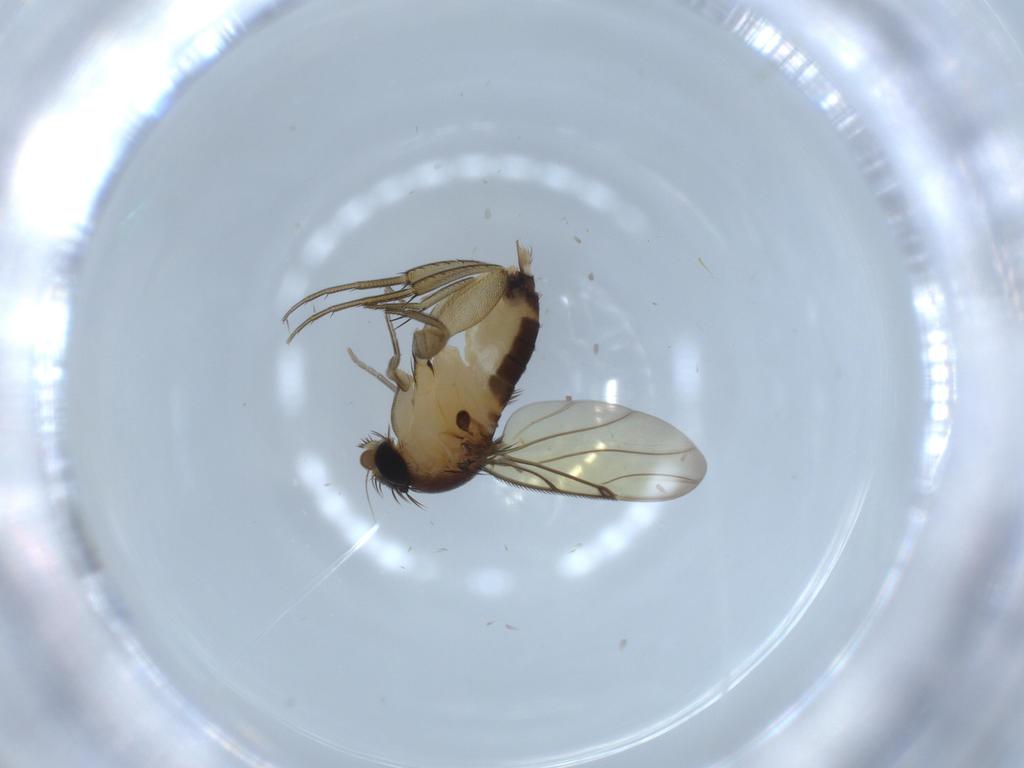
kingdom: Animalia
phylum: Arthropoda
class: Insecta
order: Diptera
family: Phoridae
